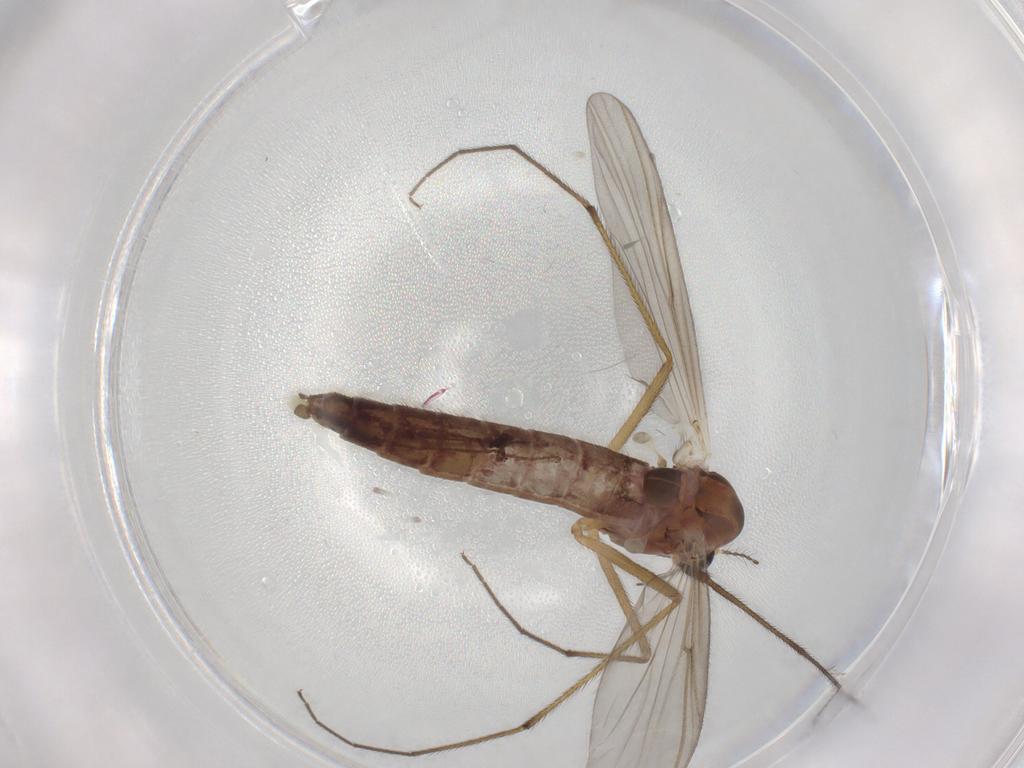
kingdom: Animalia
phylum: Arthropoda
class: Insecta
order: Diptera
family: Chironomidae
